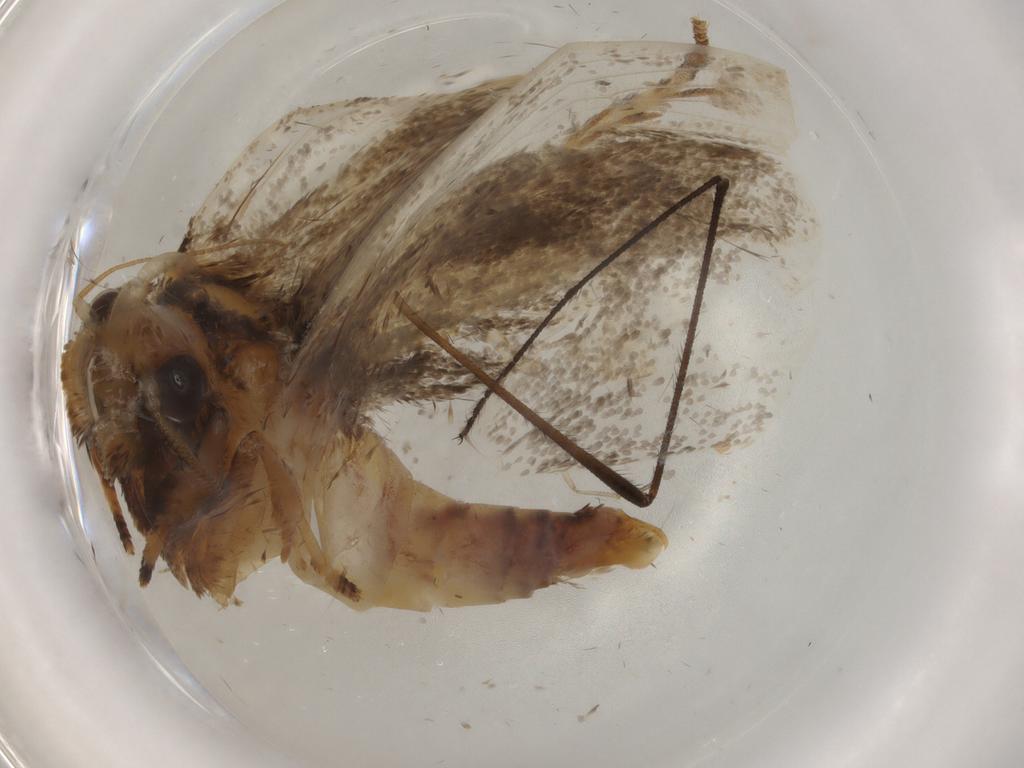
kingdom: Animalia
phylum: Arthropoda
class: Insecta
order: Lepidoptera
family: Tineidae
